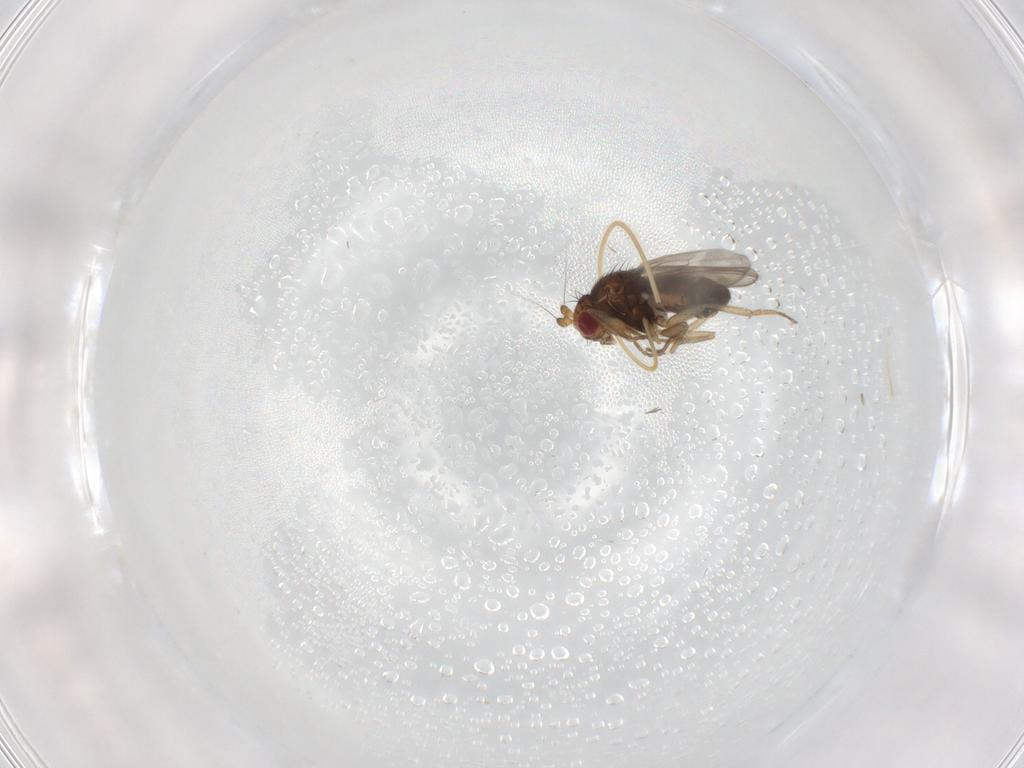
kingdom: Animalia
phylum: Arthropoda
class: Insecta
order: Diptera
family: Sphaeroceridae
